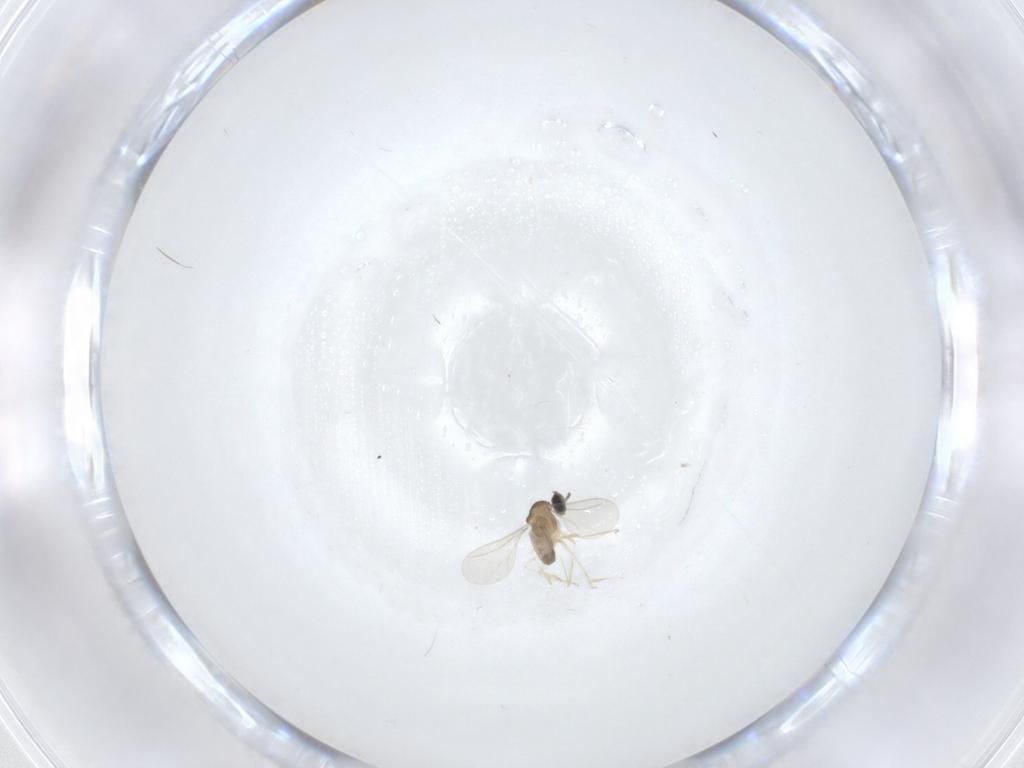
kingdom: Animalia
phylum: Arthropoda
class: Insecta
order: Diptera
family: Cecidomyiidae
